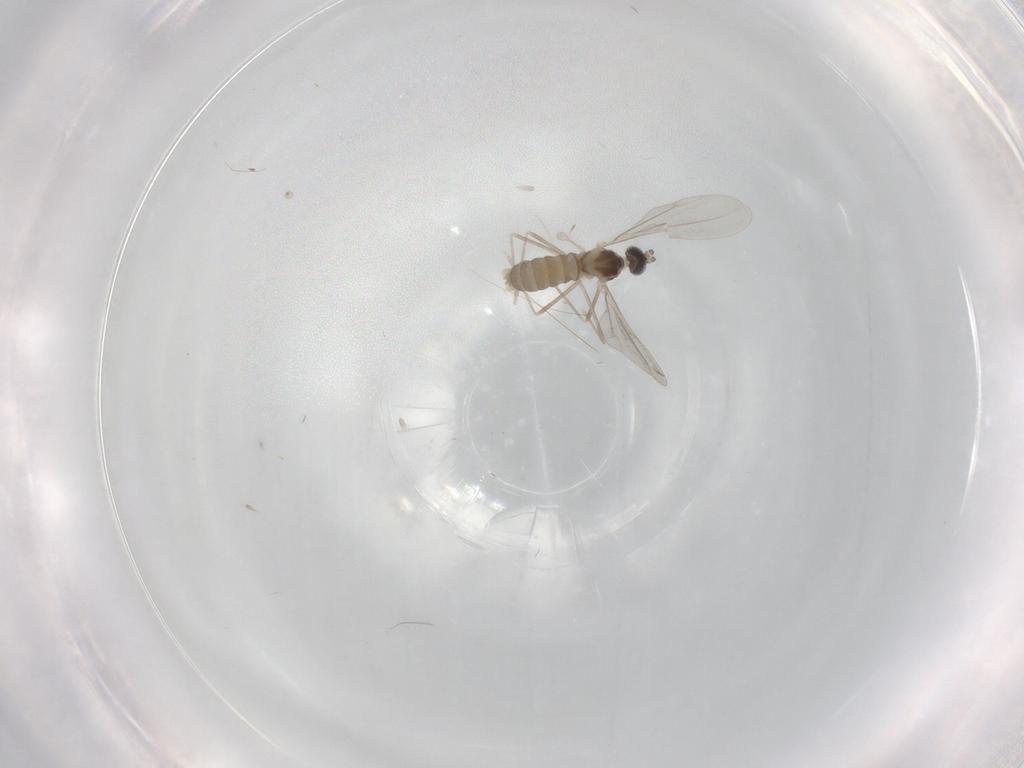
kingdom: Animalia
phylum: Arthropoda
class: Insecta
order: Diptera
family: Cecidomyiidae
